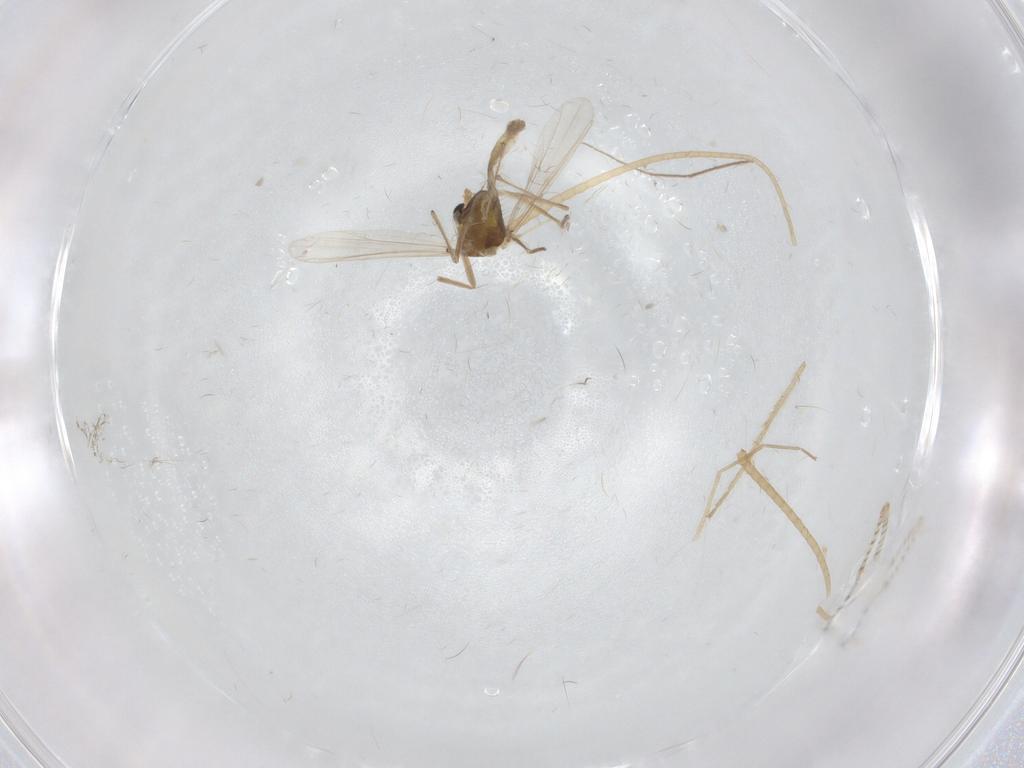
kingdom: Animalia
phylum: Arthropoda
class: Insecta
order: Diptera
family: Chaoboridae
